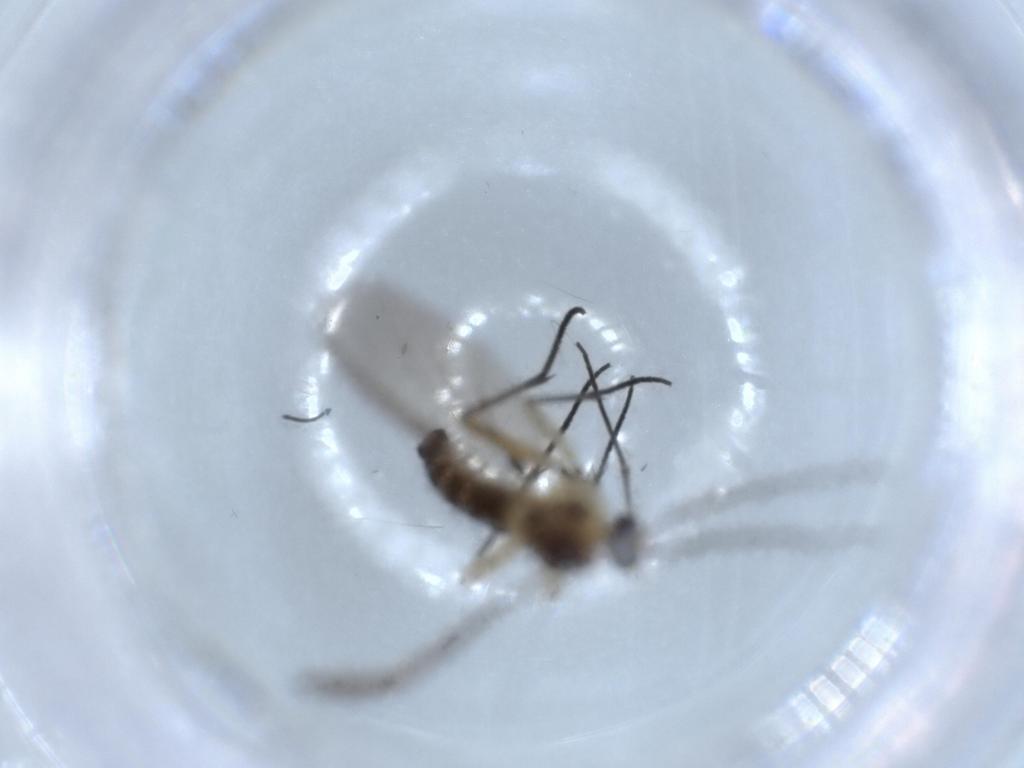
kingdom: Animalia
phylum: Arthropoda
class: Insecta
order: Diptera
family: Sciaridae
